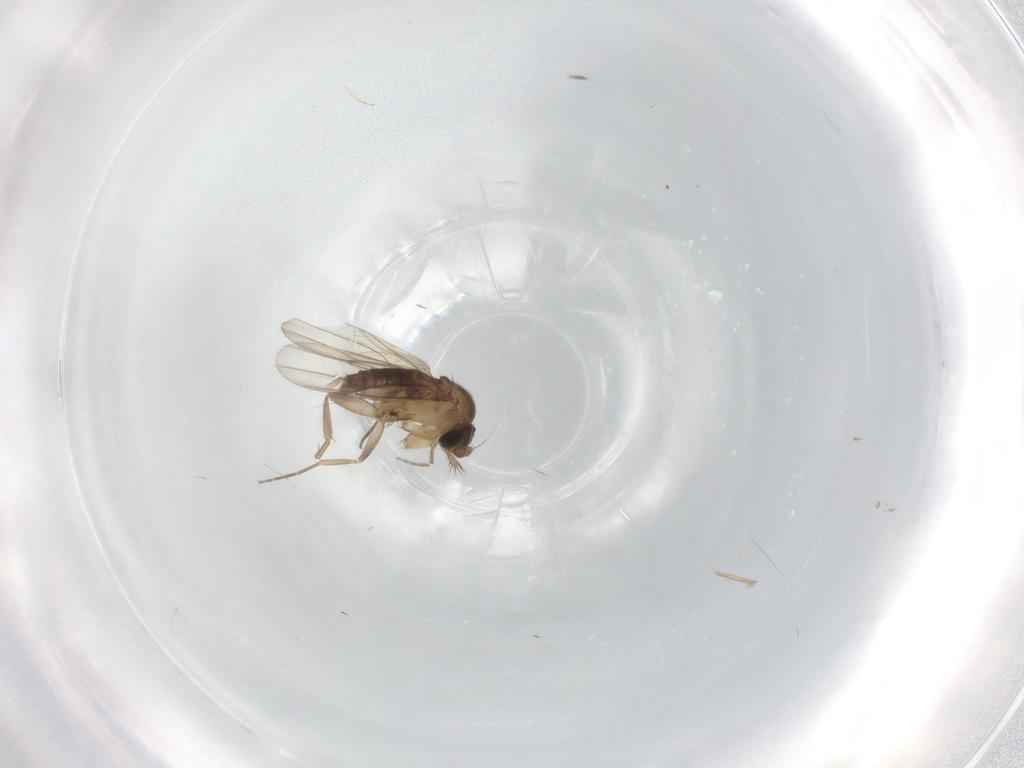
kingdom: Animalia
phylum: Arthropoda
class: Insecta
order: Diptera
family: Phoridae
